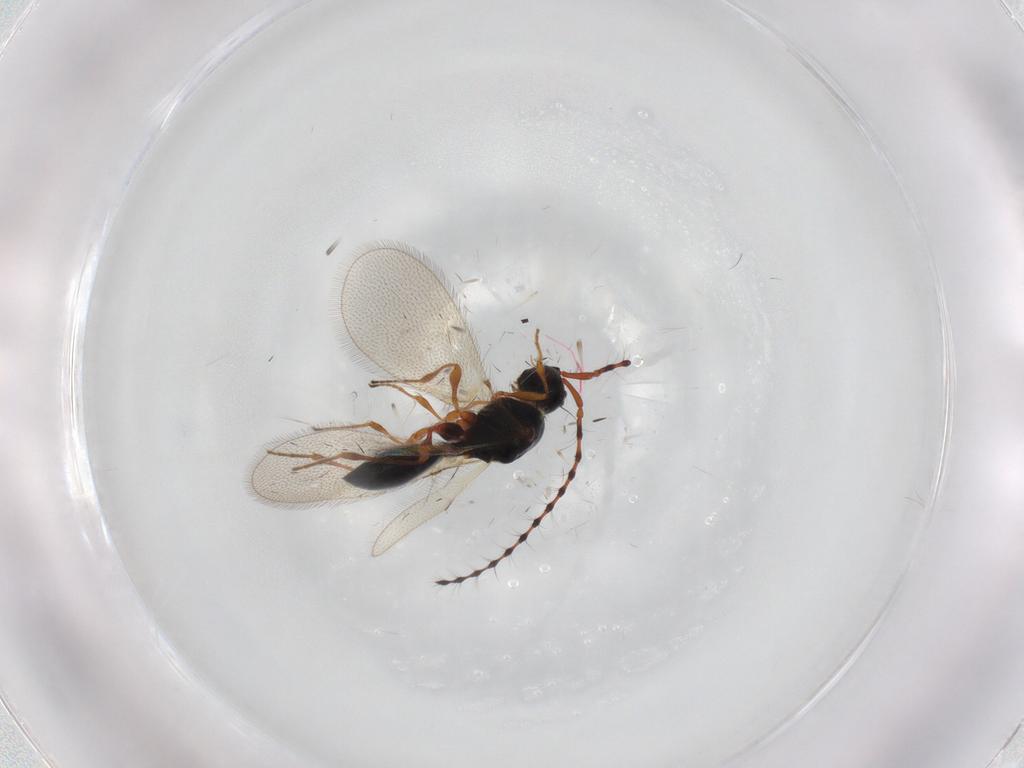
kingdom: Animalia
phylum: Arthropoda
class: Insecta
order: Hymenoptera
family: Diapriidae
